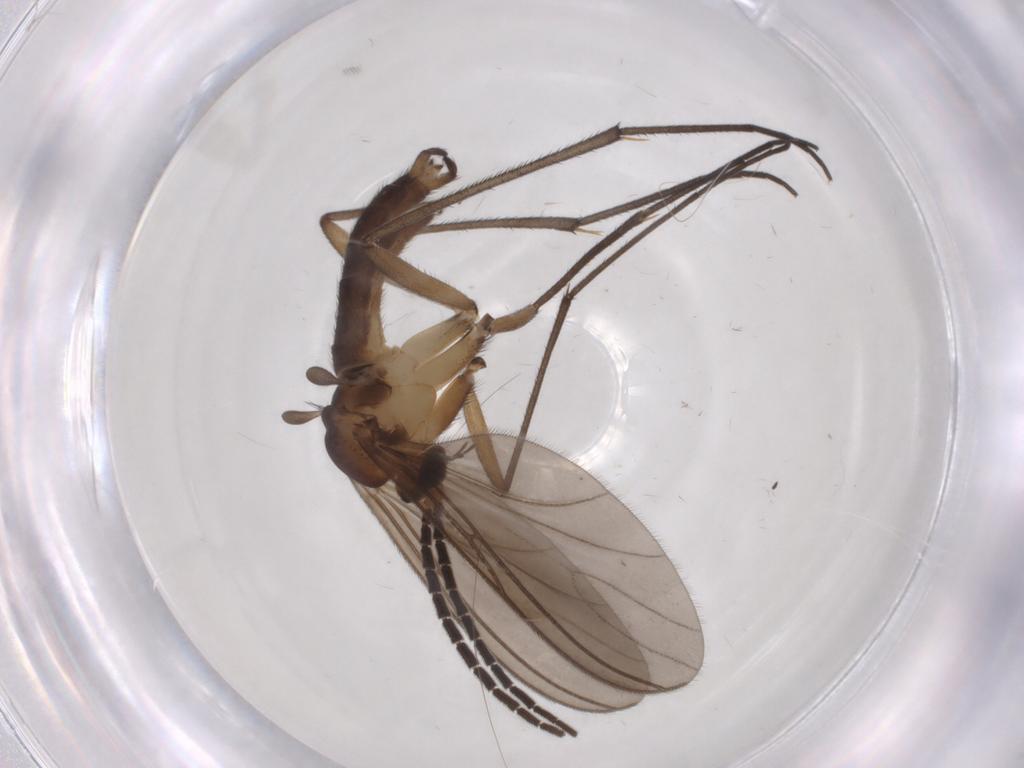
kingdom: Animalia
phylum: Arthropoda
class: Insecta
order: Diptera
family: Sciaridae
